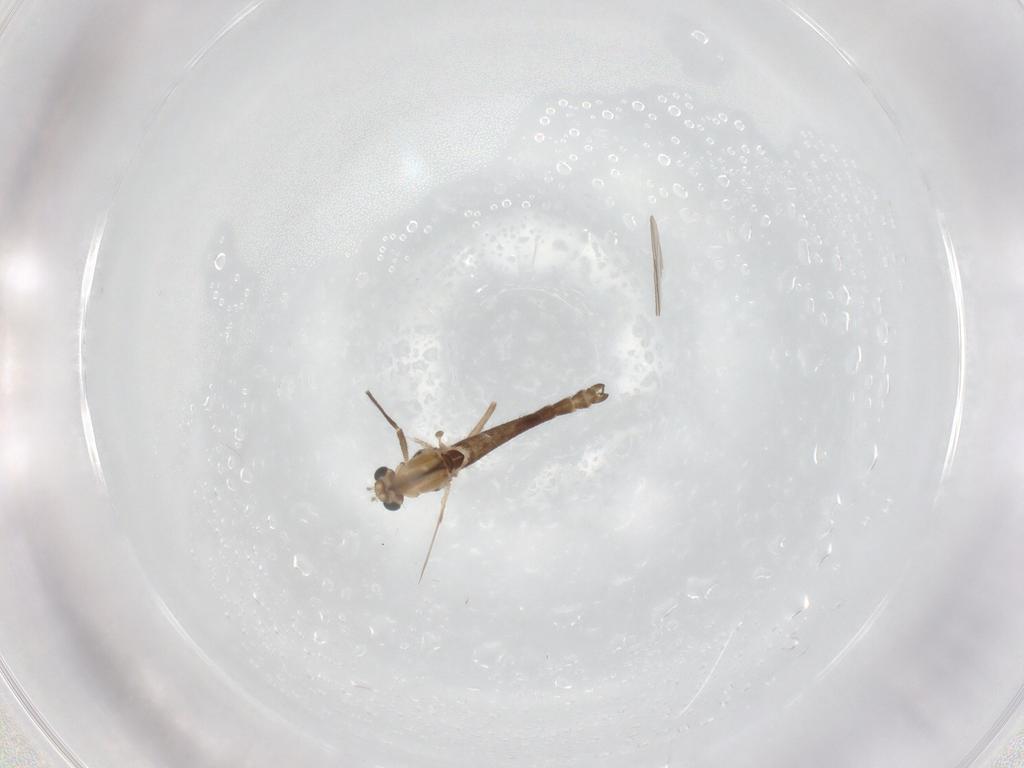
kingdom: Animalia
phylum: Arthropoda
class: Insecta
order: Diptera
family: Chironomidae
